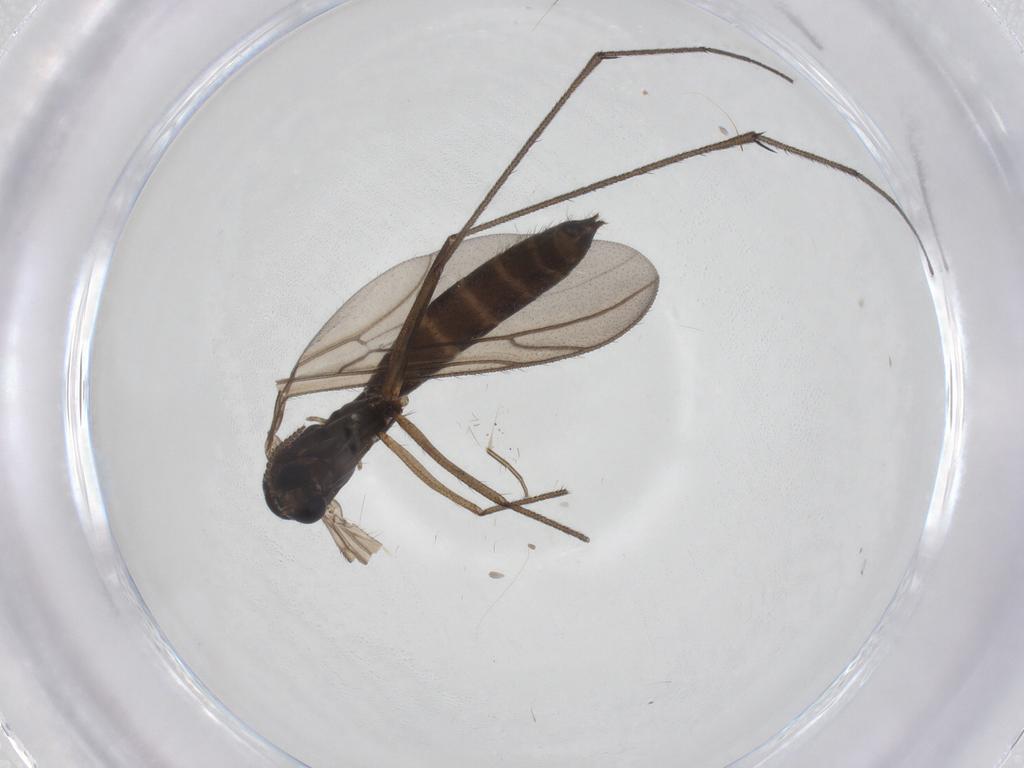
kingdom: Animalia
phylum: Arthropoda
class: Insecta
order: Diptera
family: Ditomyiidae
